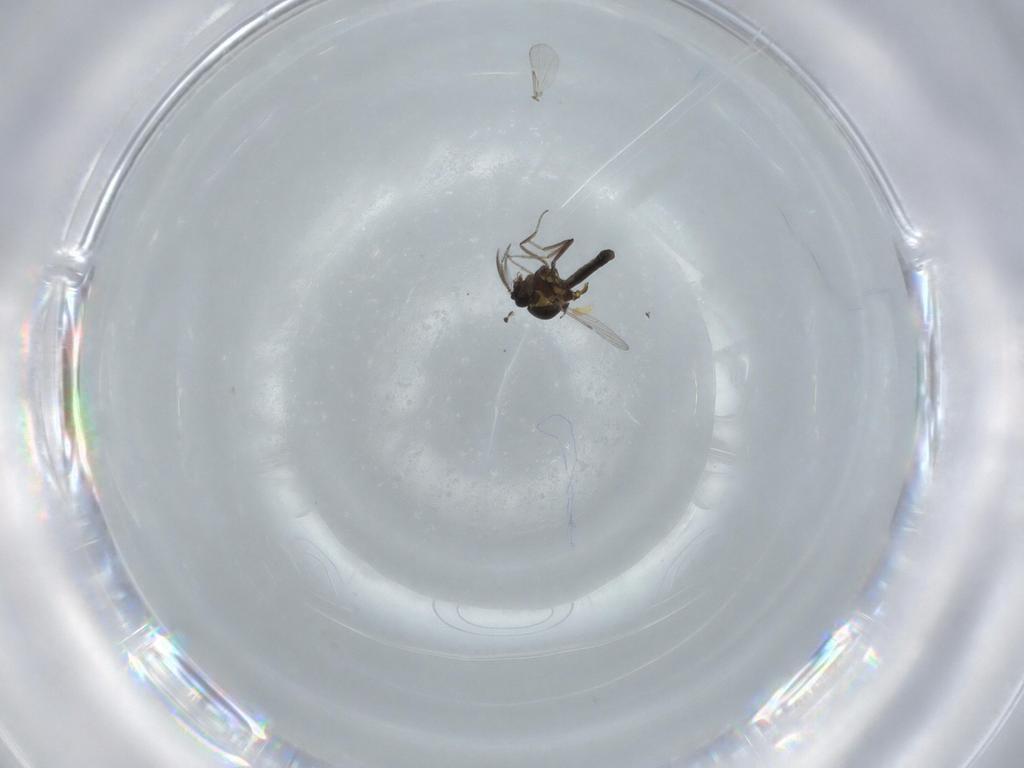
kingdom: Animalia
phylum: Arthropoda
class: Insecta
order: Diptera
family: Ceratopogonidae
